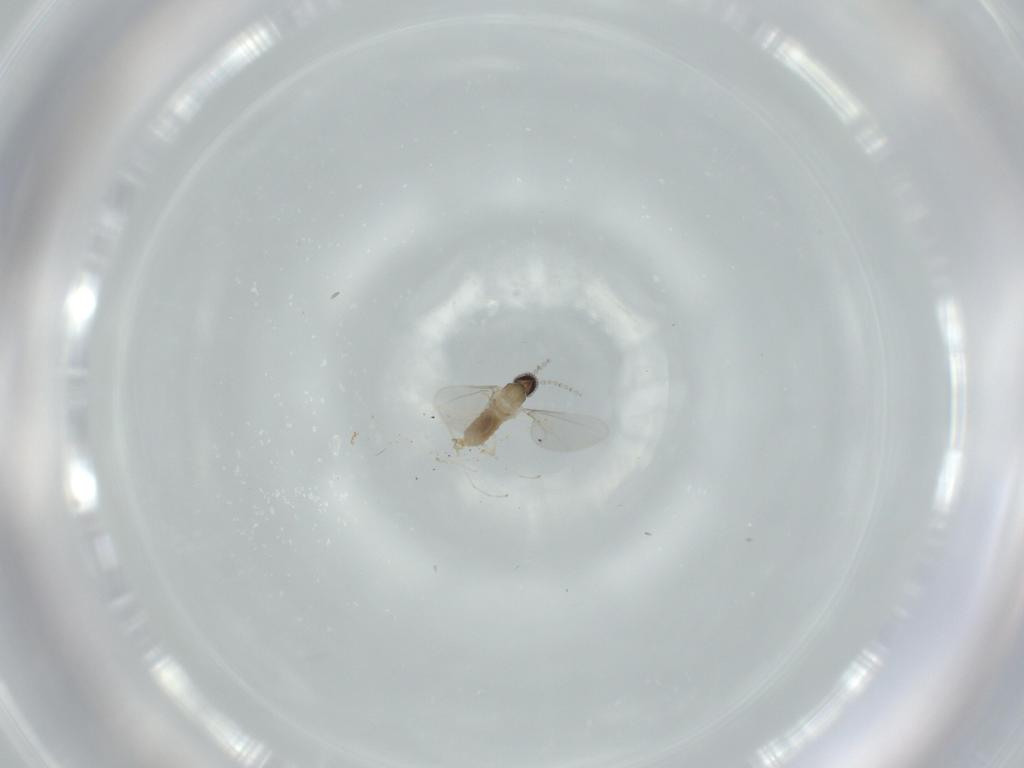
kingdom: Animalia
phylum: Arthropoda
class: Insecta
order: Diptera
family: Cecidomyiidae
